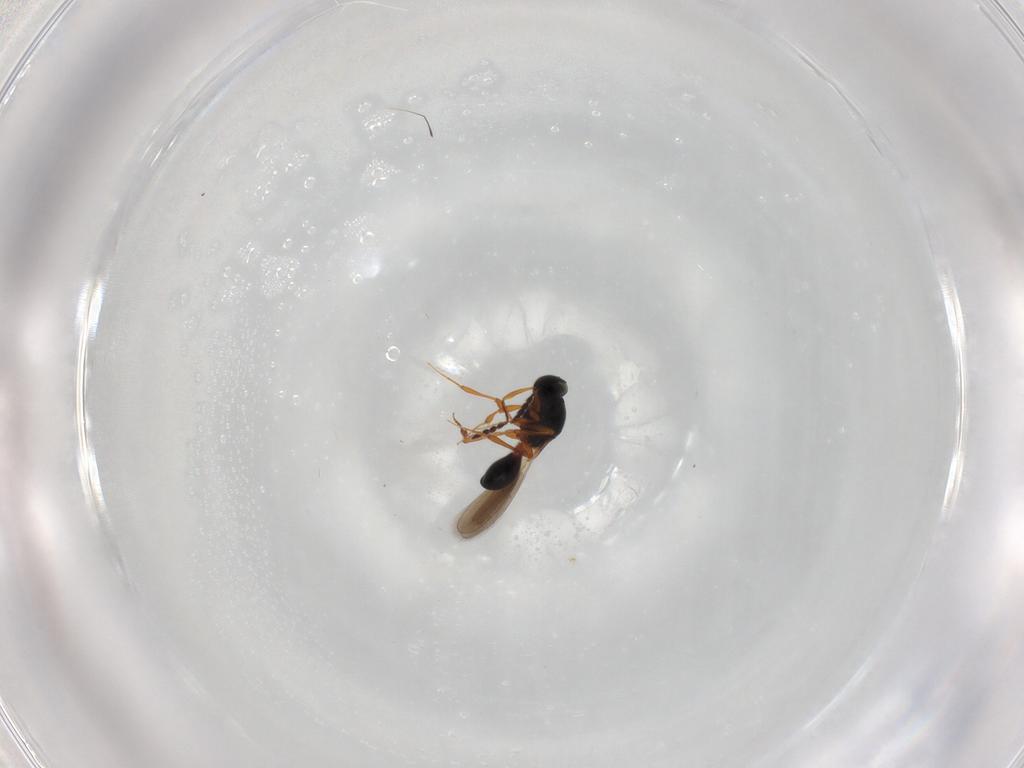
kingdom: Animalia
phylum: Arthropoda
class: Insecta
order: Hymenoptera
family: Platygastridae
